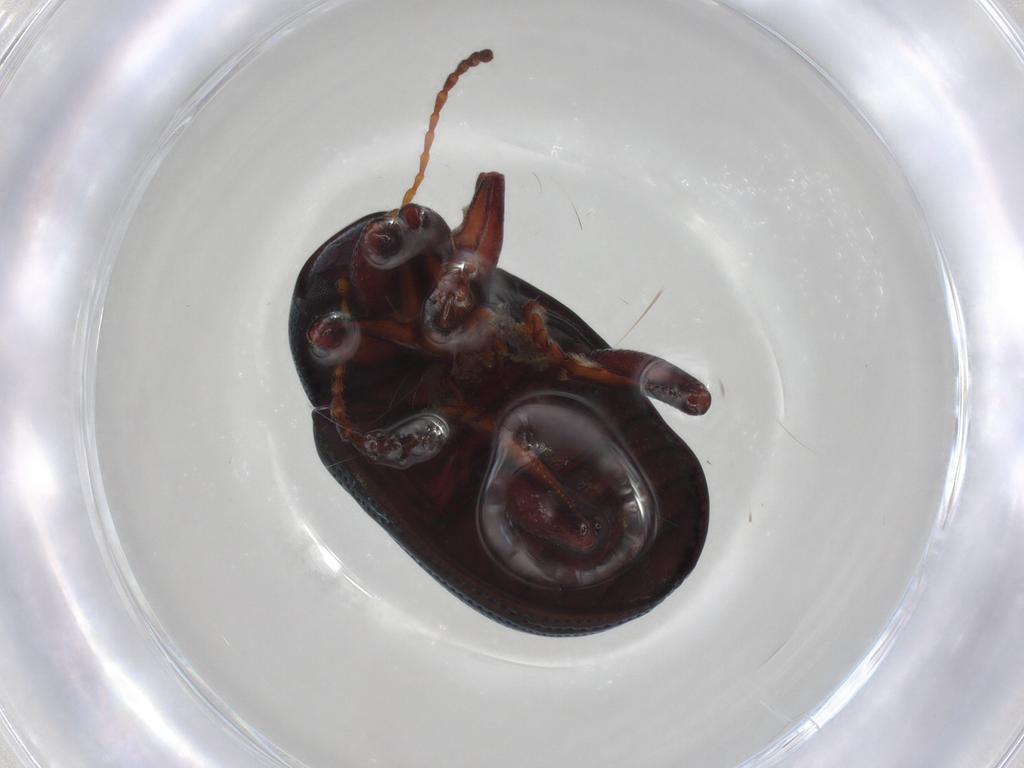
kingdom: Animalia
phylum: Arthropoda
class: Insecta
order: Coleoptera
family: Chrysomelidae
